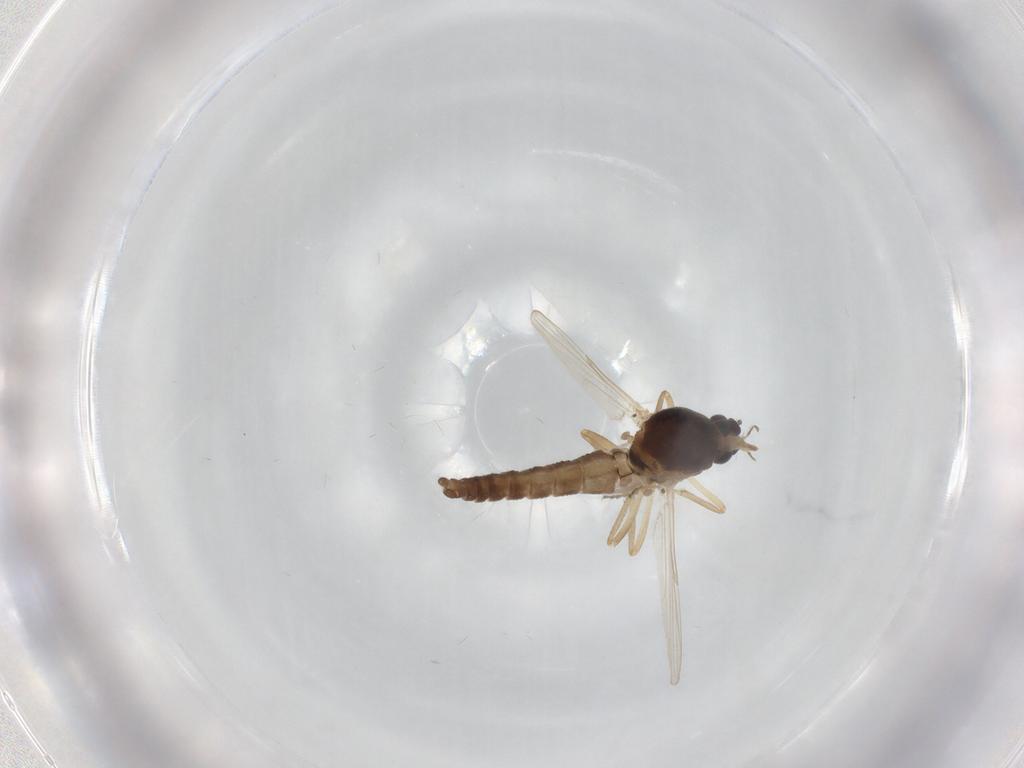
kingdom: Animalia
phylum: Arthropoda
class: Insecta
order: Diptera
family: Ceratopogonidae
